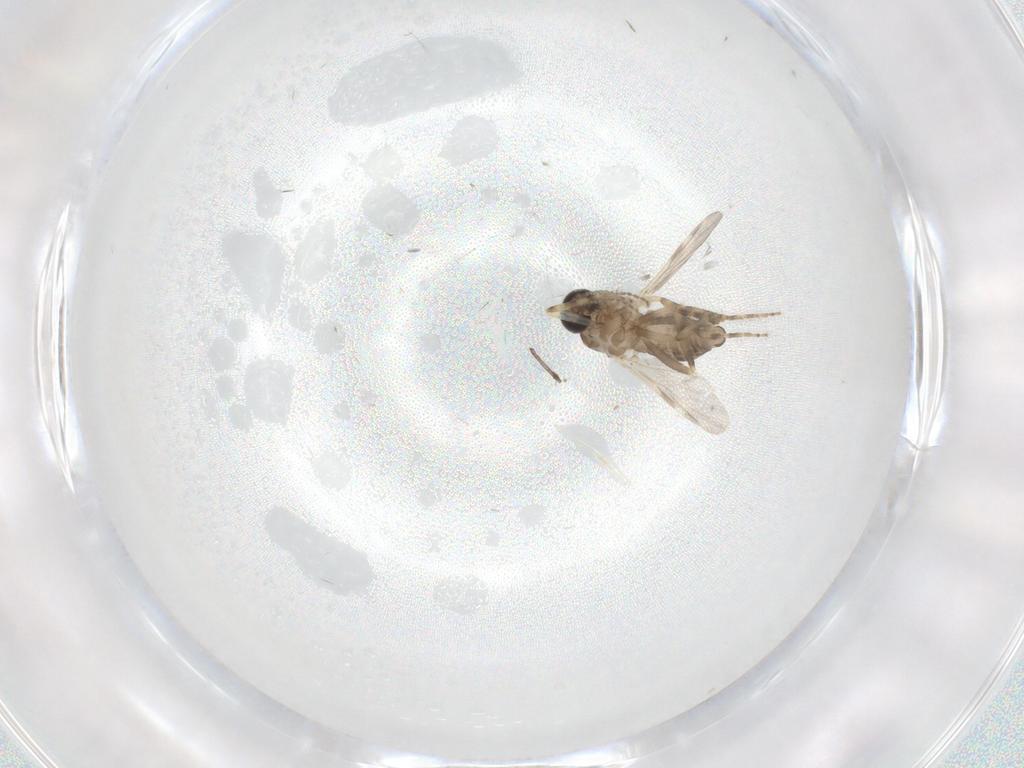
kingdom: Animalia
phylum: Arthropoda
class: Insecta
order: Diptera
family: Ceratopogonidae
